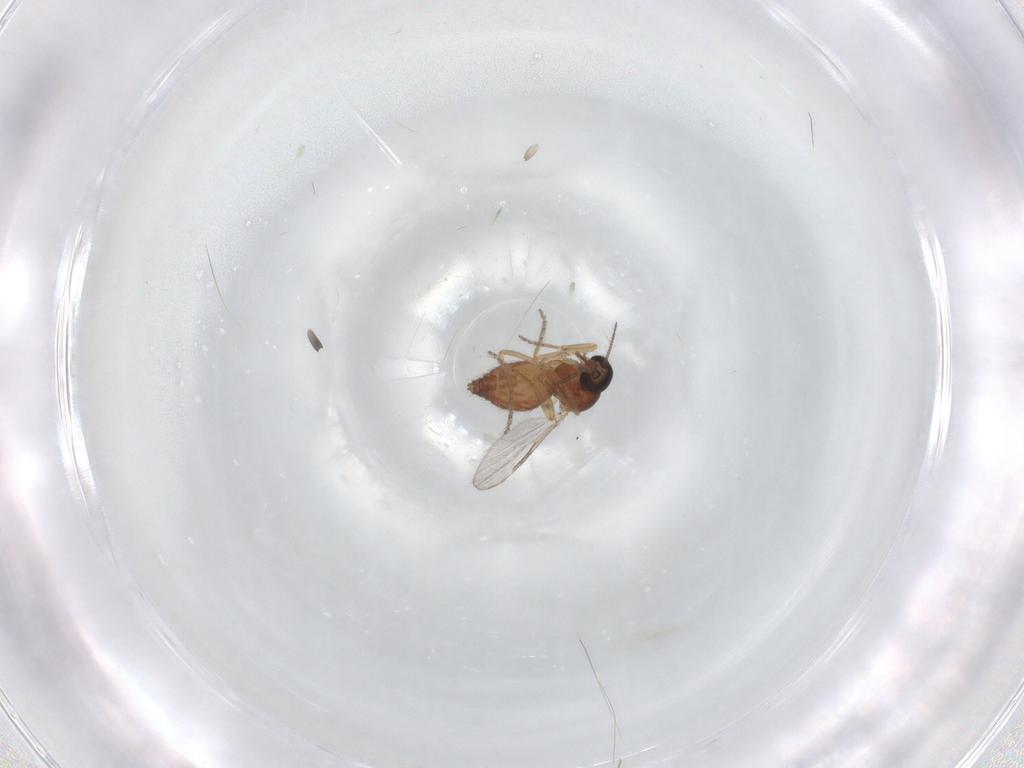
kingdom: Animalia
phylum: Arthropoda
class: Insecta
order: Diptera
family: Ceratopogonidae
